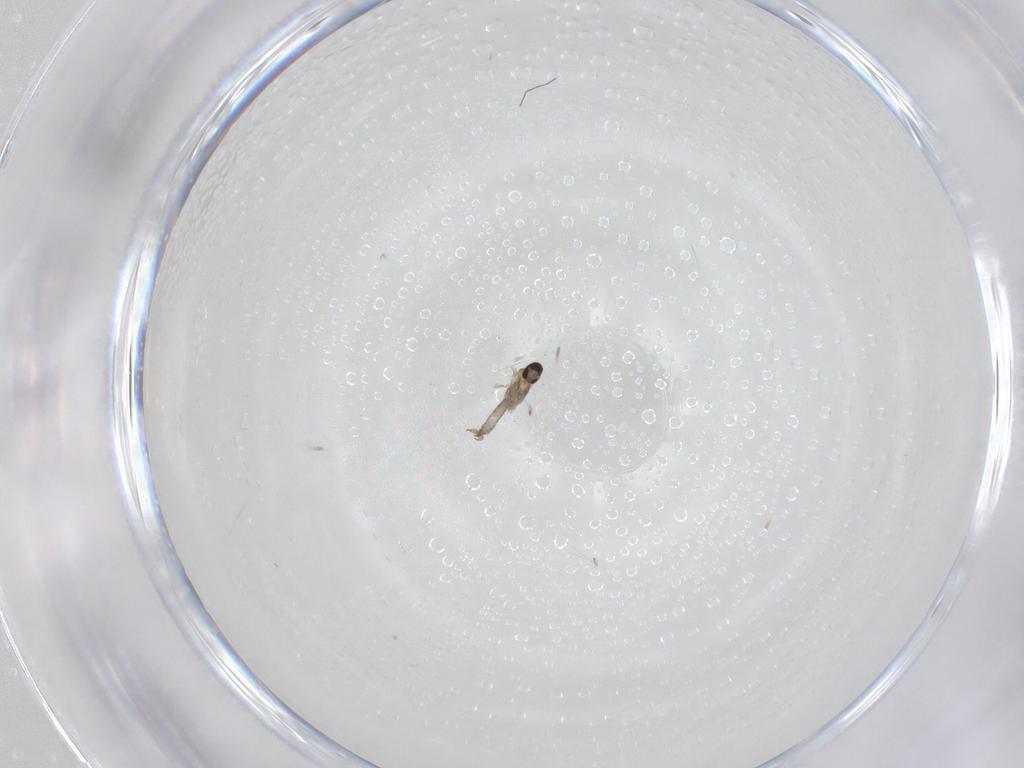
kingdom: Animalia
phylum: Arthropoda
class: Insecta
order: Diptera
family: Cecidomyiidae
